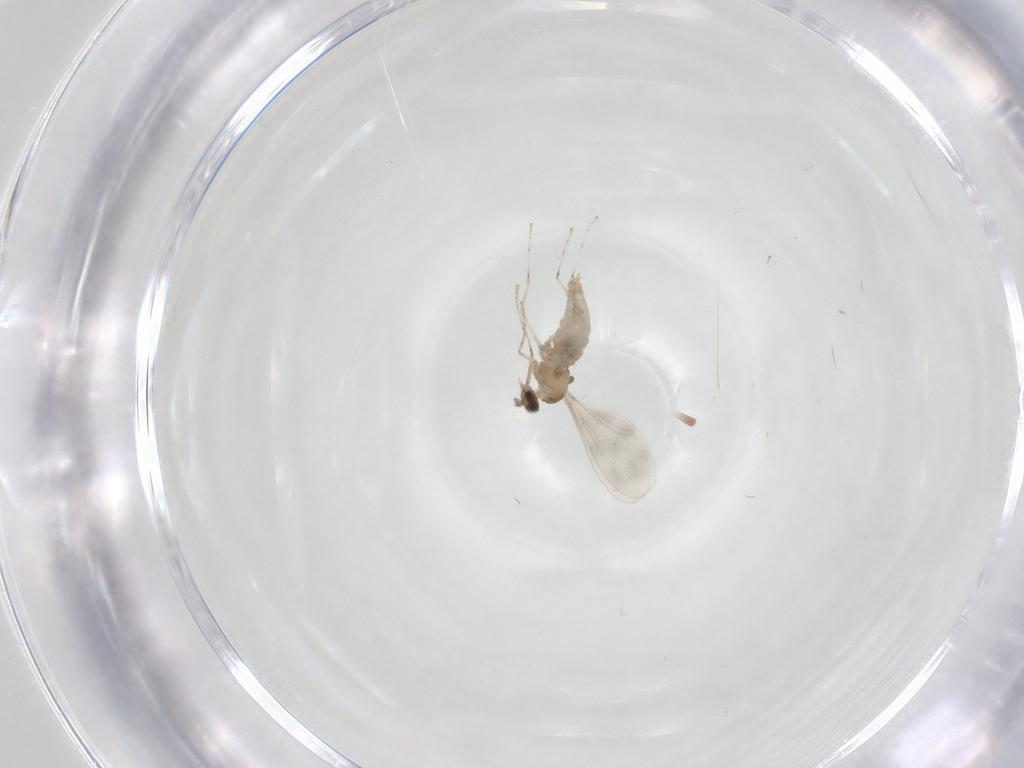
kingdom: Animalia
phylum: Arthropoda
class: Insecta
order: Diptera
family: Cecidomyiidae
